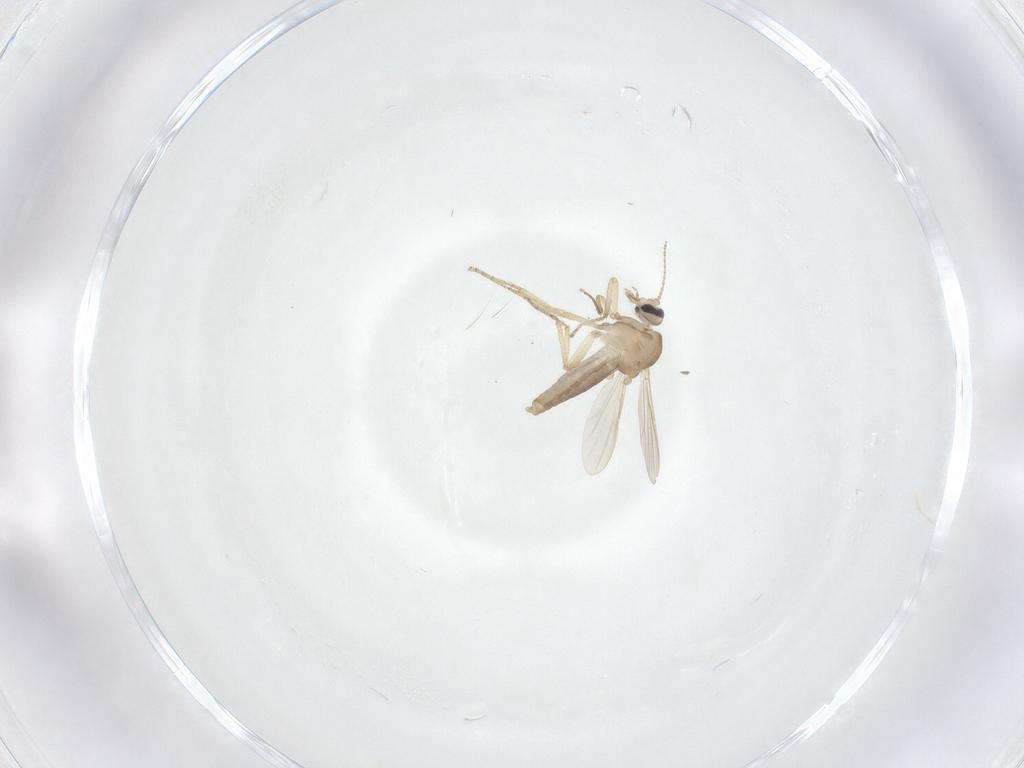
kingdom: Animalia
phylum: Arthropoda
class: Insecta
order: Diptera
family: Ceratopogonidae
